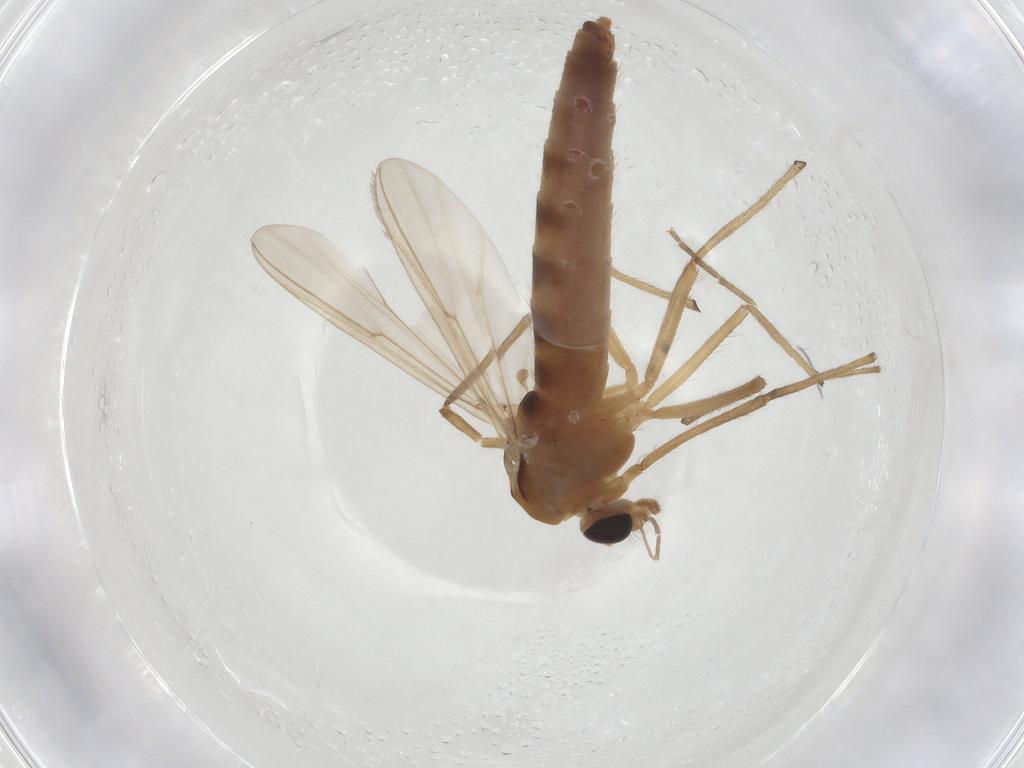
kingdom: Animalia
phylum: Arthropoda
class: Insecta
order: Diptera
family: Chironomidae
